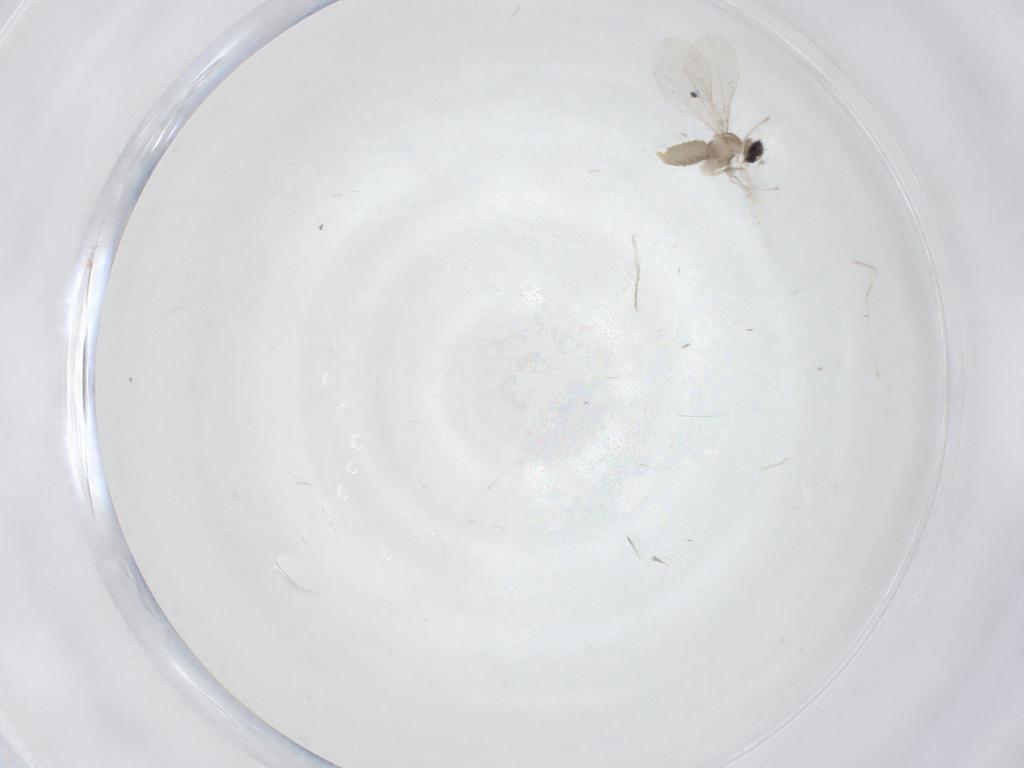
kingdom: Animalia
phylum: Arthropoda
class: Insecta
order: Diptera
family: Cecidomyiidae
